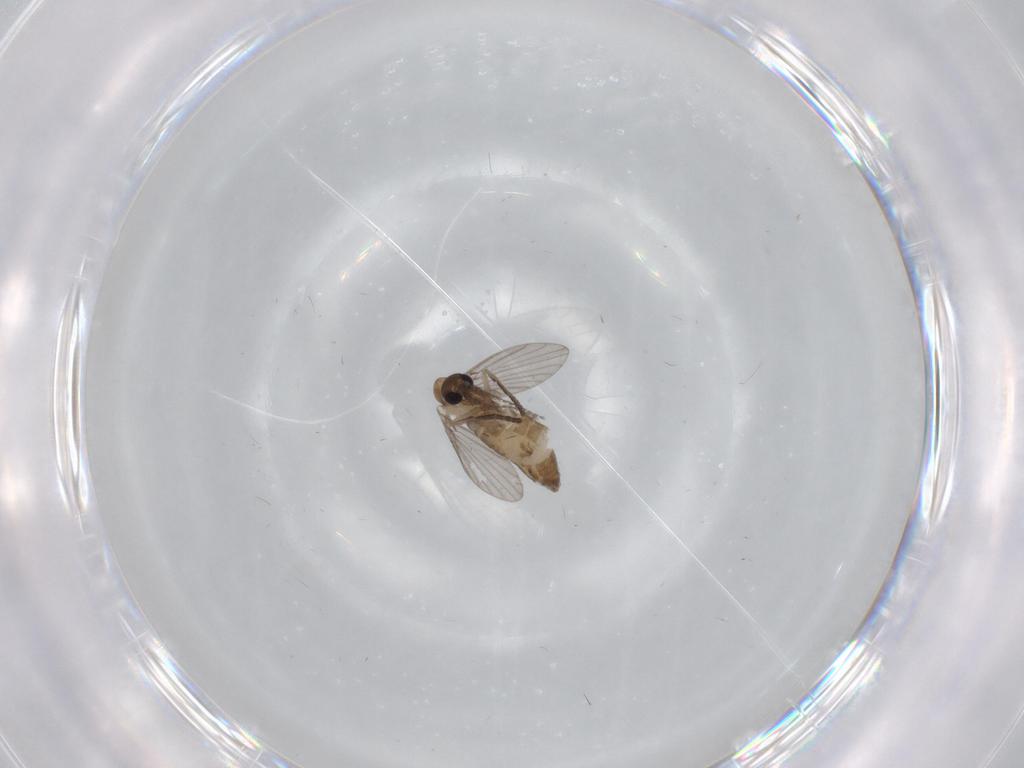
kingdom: Animalia
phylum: Arthropoda
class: Insecta
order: Diptera
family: Psychodidae
